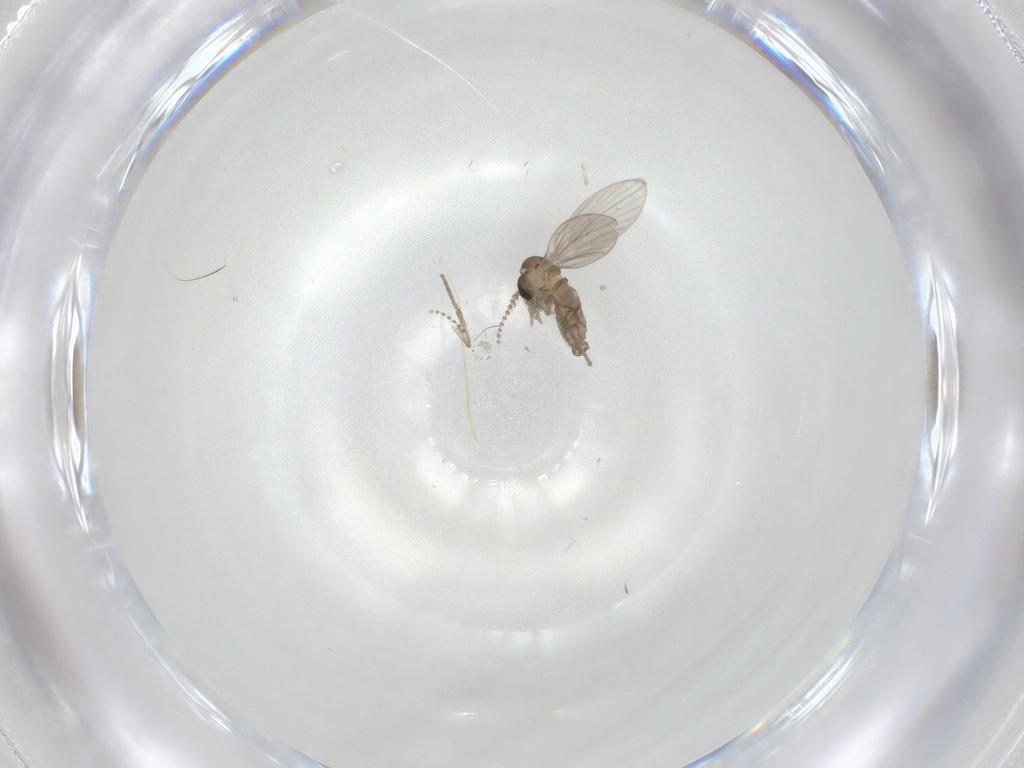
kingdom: Animalia
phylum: Arthropoda
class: Insecta
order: Diptera
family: Psychodidae
